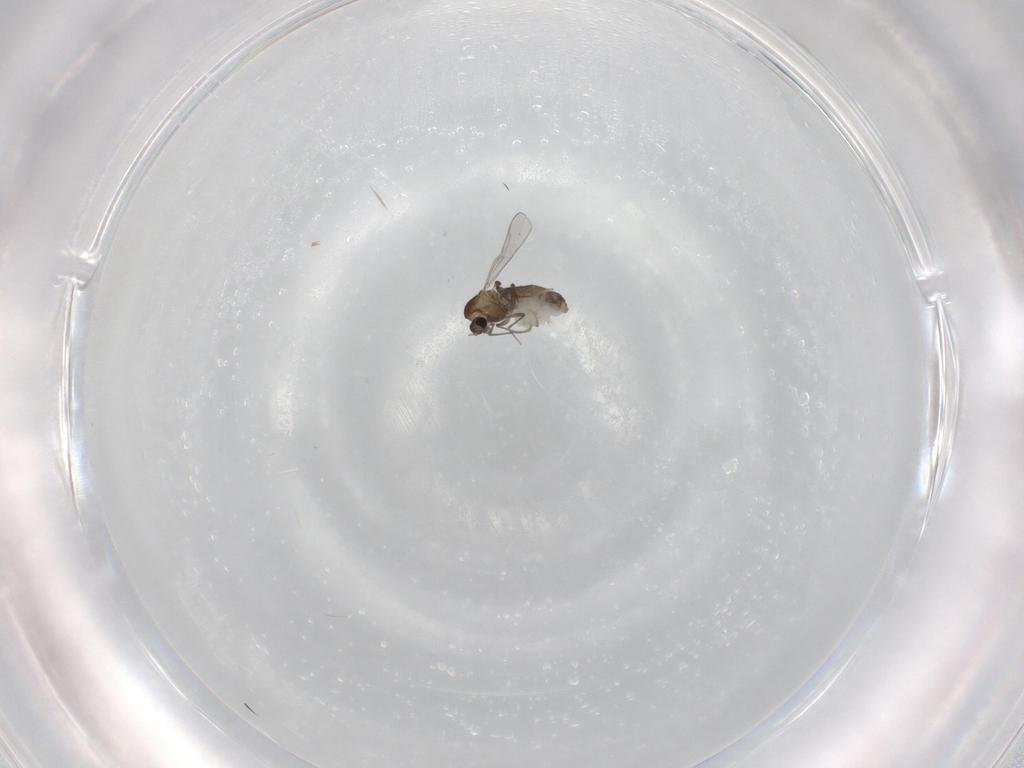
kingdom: Animalia
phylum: Arthropoda
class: Insecta
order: Diptera
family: Chironomidae
